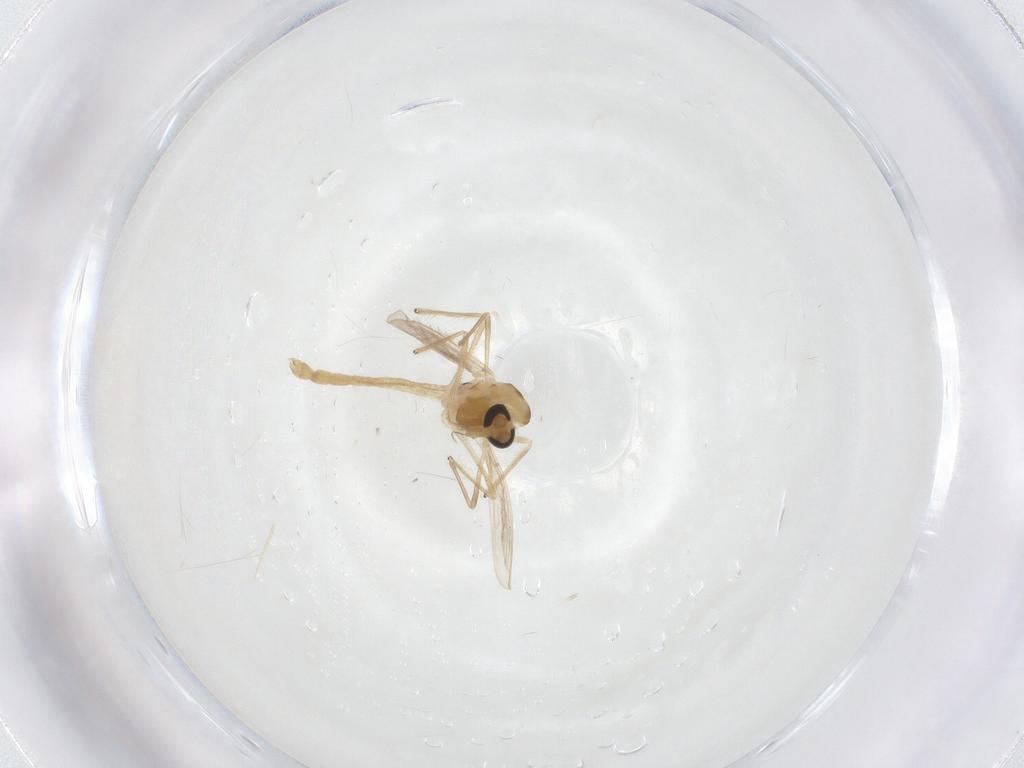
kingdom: Animalia
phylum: Arthropoda
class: Insecta
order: Diptera
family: Chironomidae
